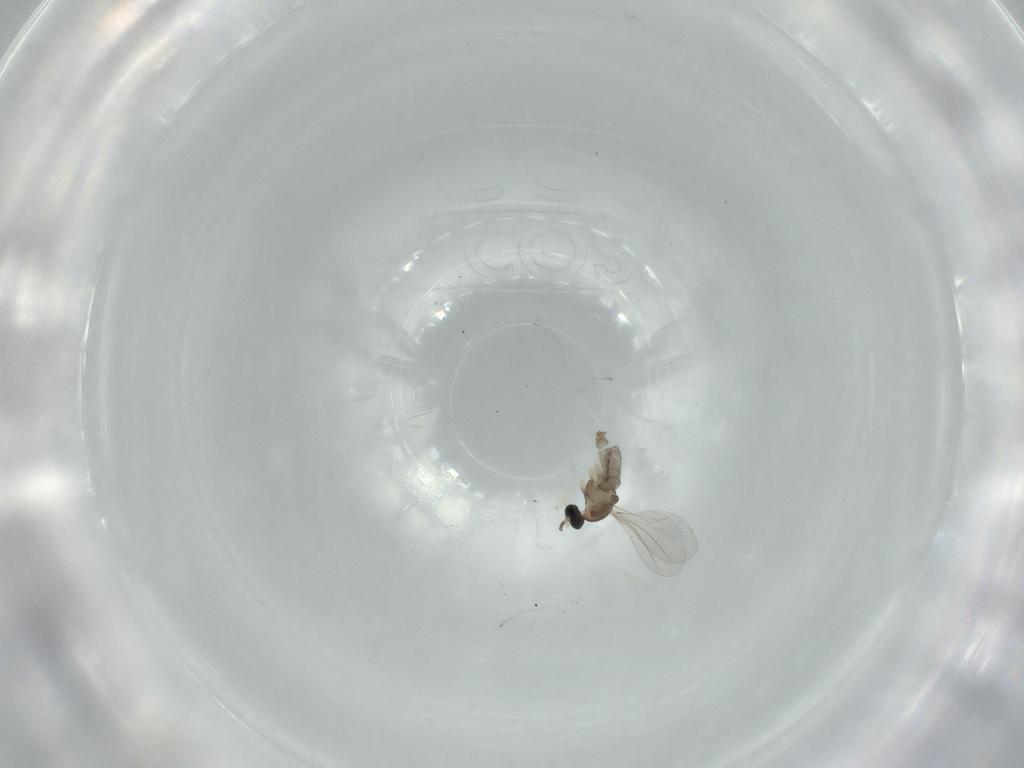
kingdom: Animalia
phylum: Arthropoda
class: Insecta
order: Diptera
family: Cecidomyiidae
